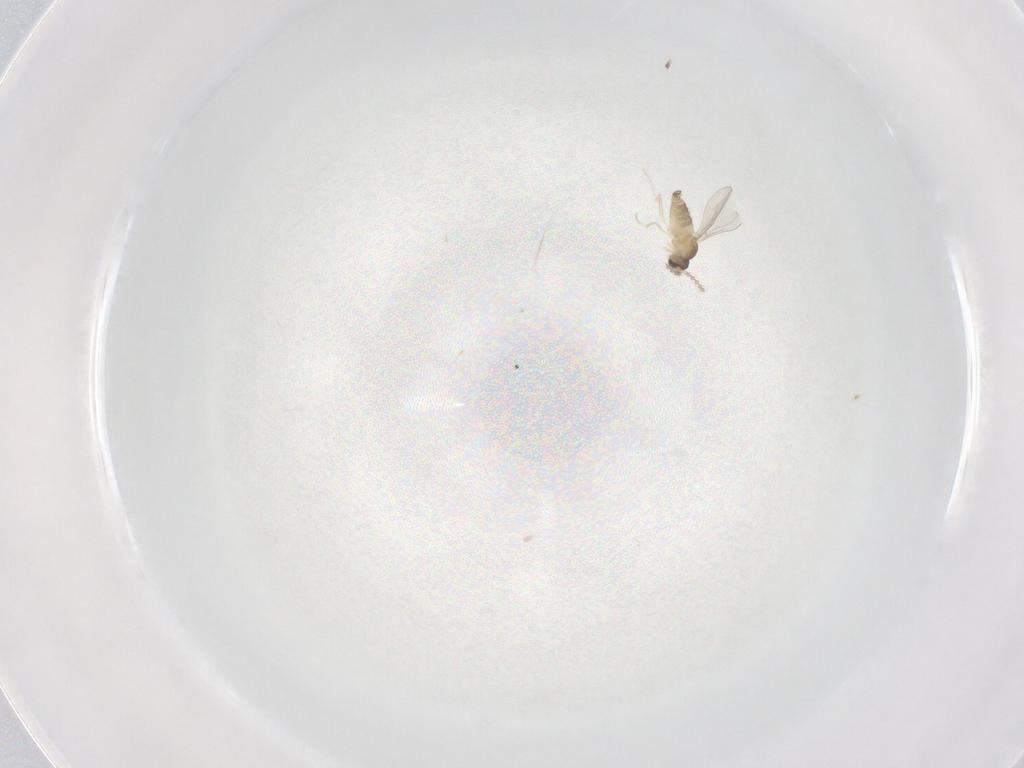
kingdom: Animalia
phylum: Arthropoda
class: Insecta
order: Diptera
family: Cecidomyiidae
